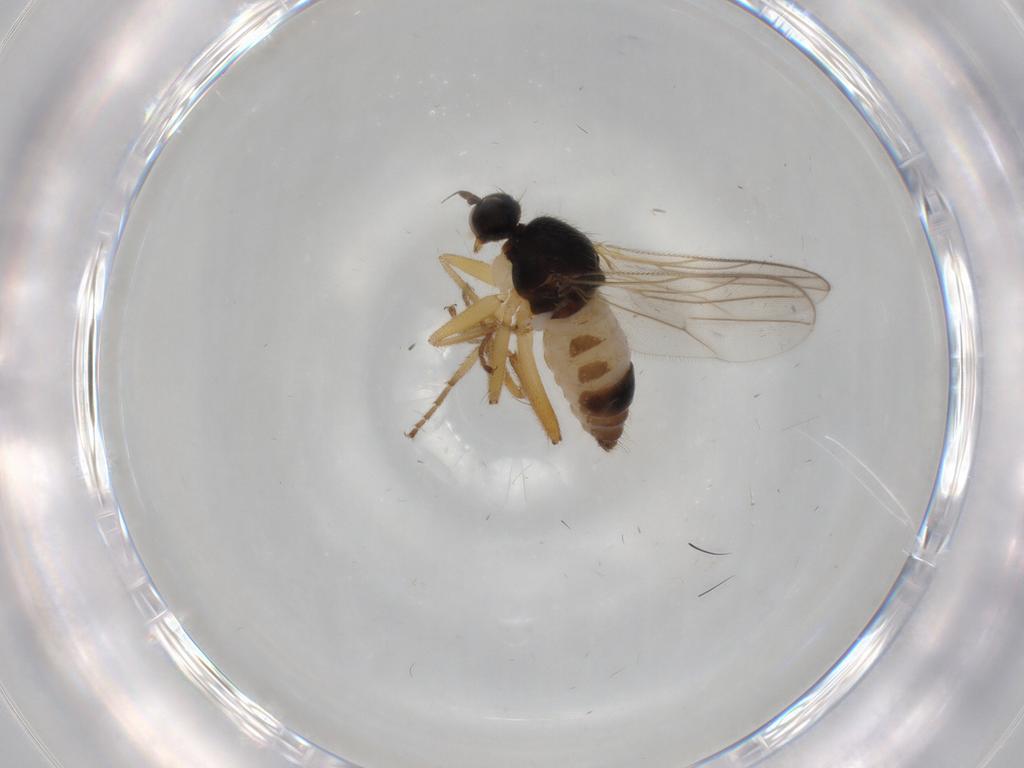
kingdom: Animalia
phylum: Arthropoda
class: Insecta
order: Diptera
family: Hybotidae
